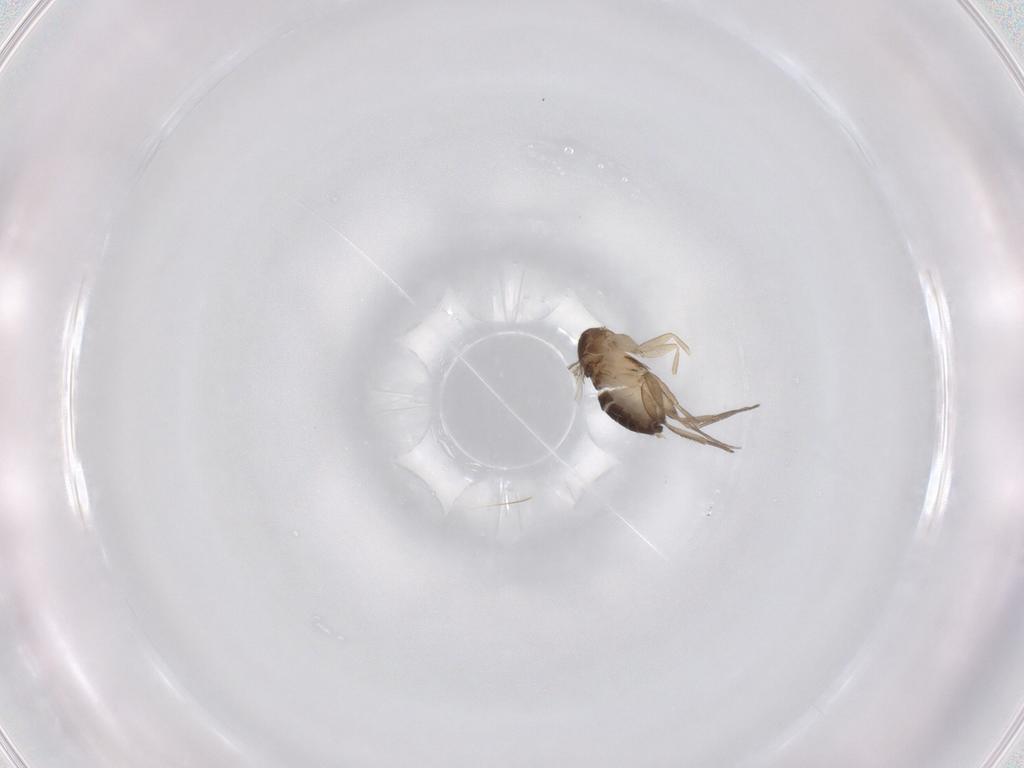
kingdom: Animalia
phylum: Arthropoda
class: Insecta
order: Diptera
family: Phoridae
